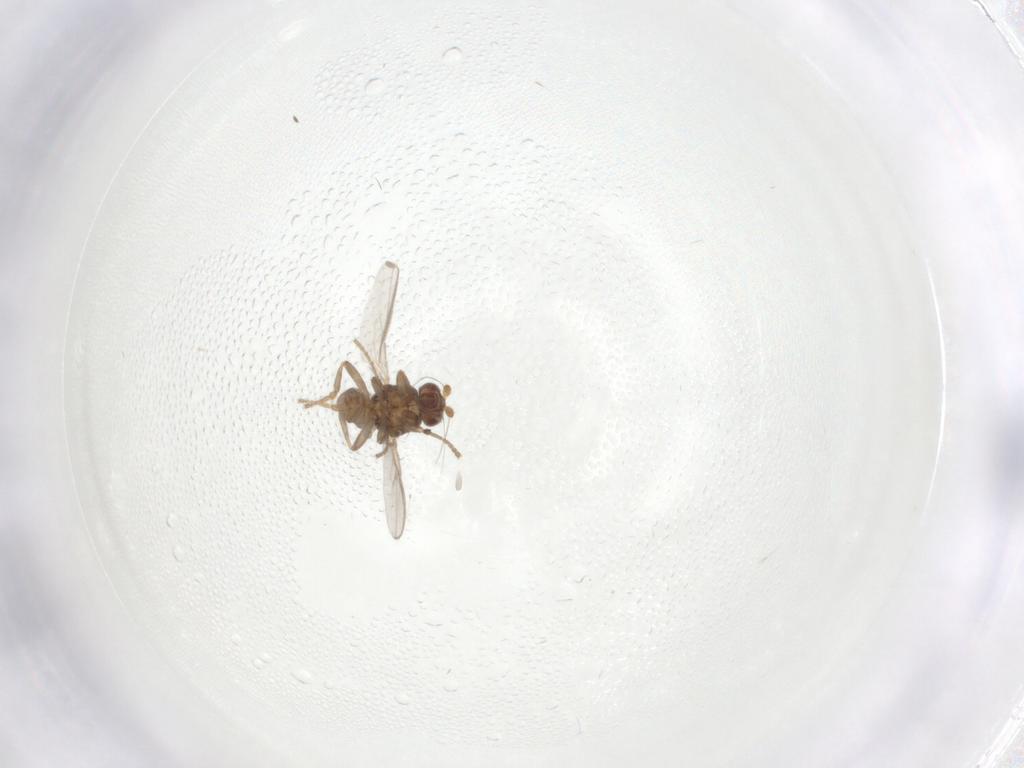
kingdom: Animalia
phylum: Arthropoda
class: Insecta
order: Diptera
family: Sphaeroceridae
